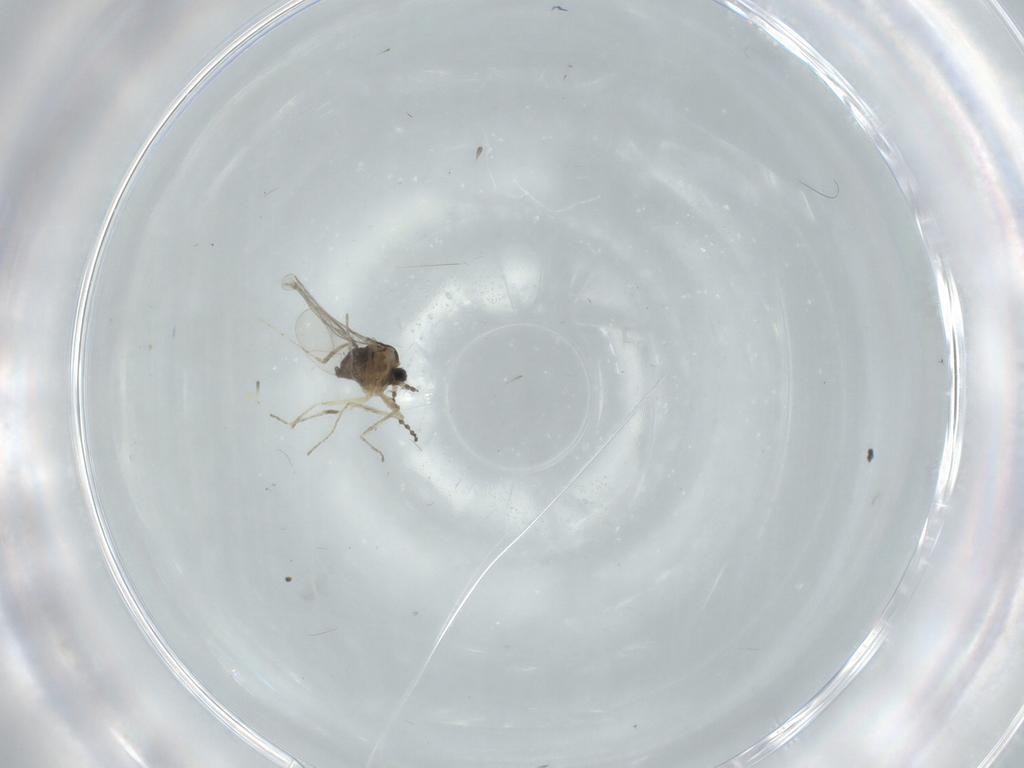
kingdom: Animalia
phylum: Arthropoda
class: Insecta
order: Diptera
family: Cecidomyiidae
